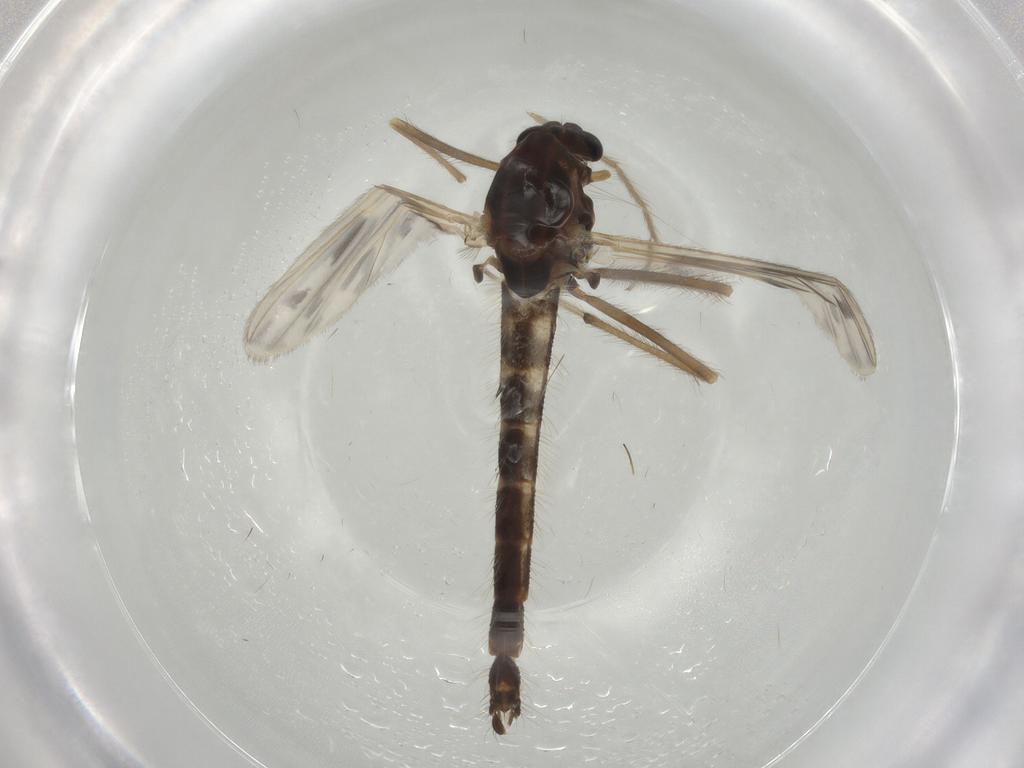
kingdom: Animalia
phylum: Arthropoda
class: Insecta
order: Diptera
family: Chironomidae
